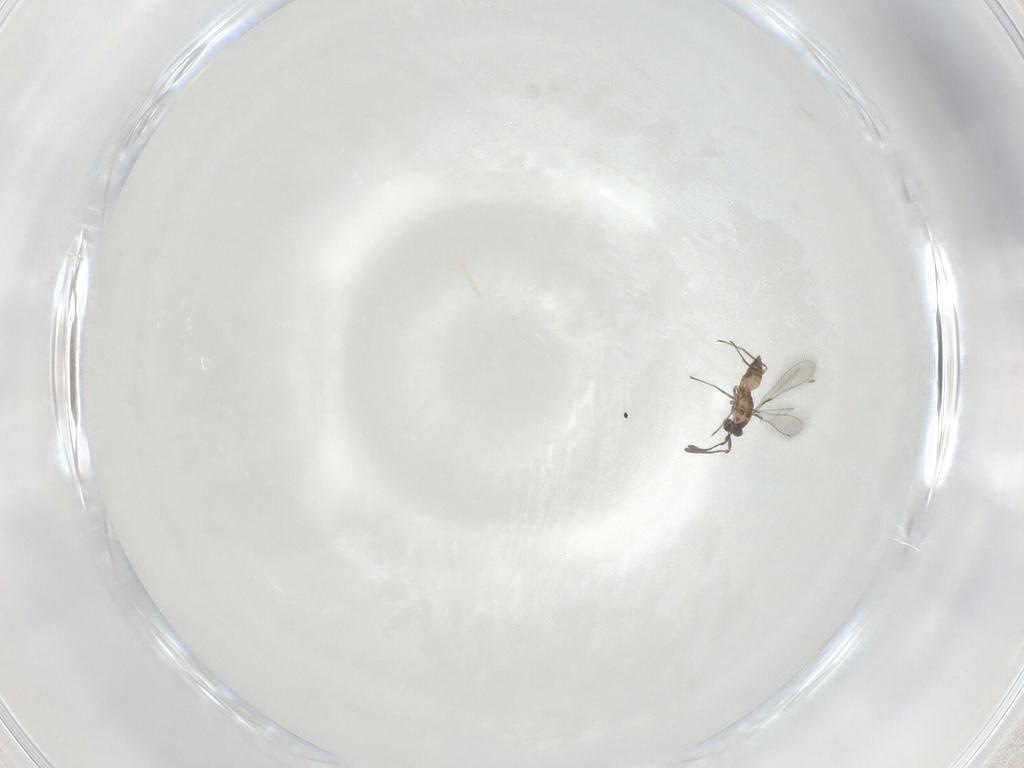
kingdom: Animalia
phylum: Arthropoda
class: Insecta
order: Hymenoptera
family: Mymaridae
